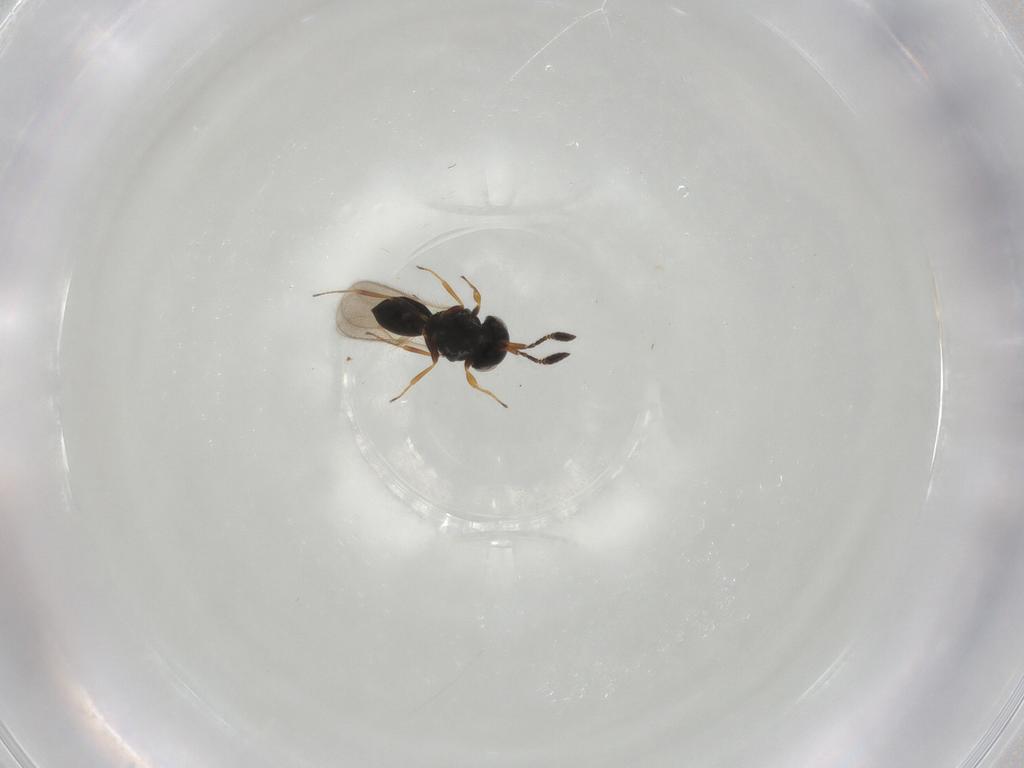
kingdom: Animalia
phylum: Arthropoda
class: Insecta
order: Hymenoptera
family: Scelionidae
